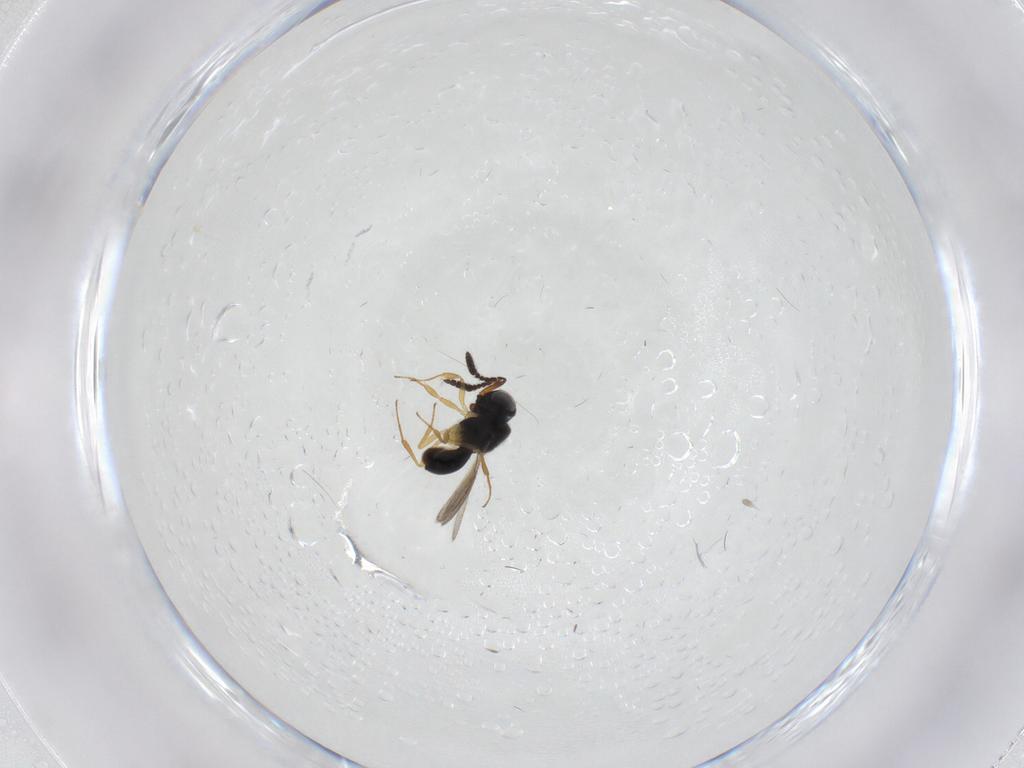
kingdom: Animalia
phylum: Arthropoda
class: Insecta
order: Hymenoptera
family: Scelionidae
